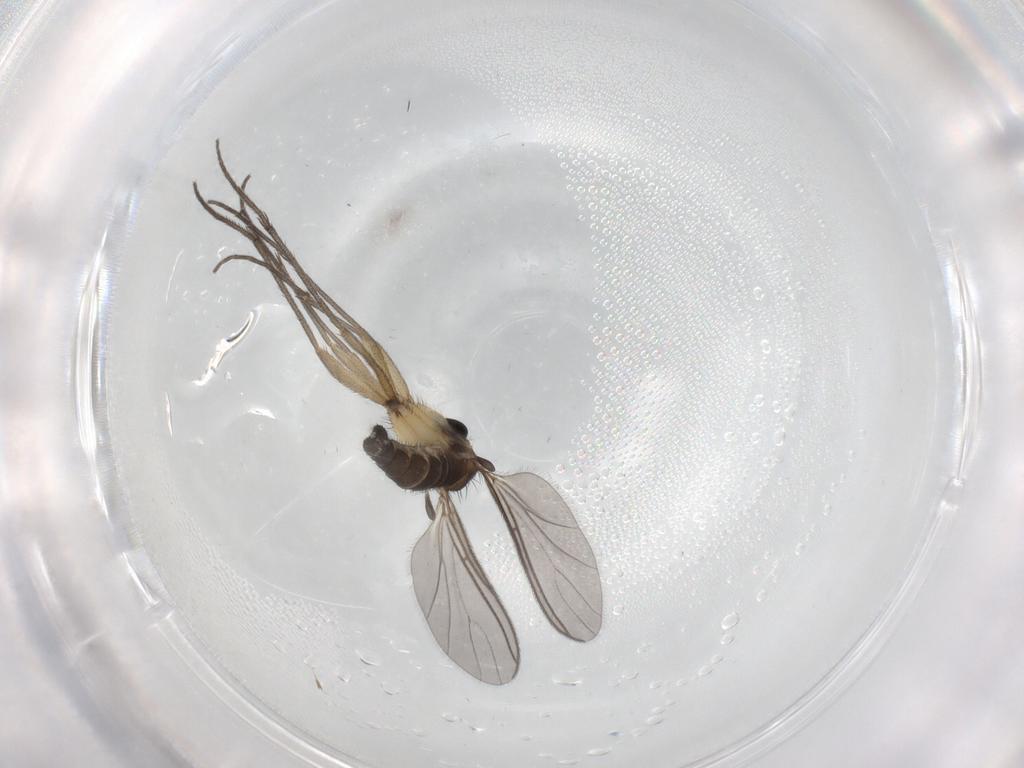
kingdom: Animalia
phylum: Arthropoda
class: Insecta
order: Diptera
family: Sciaridae
